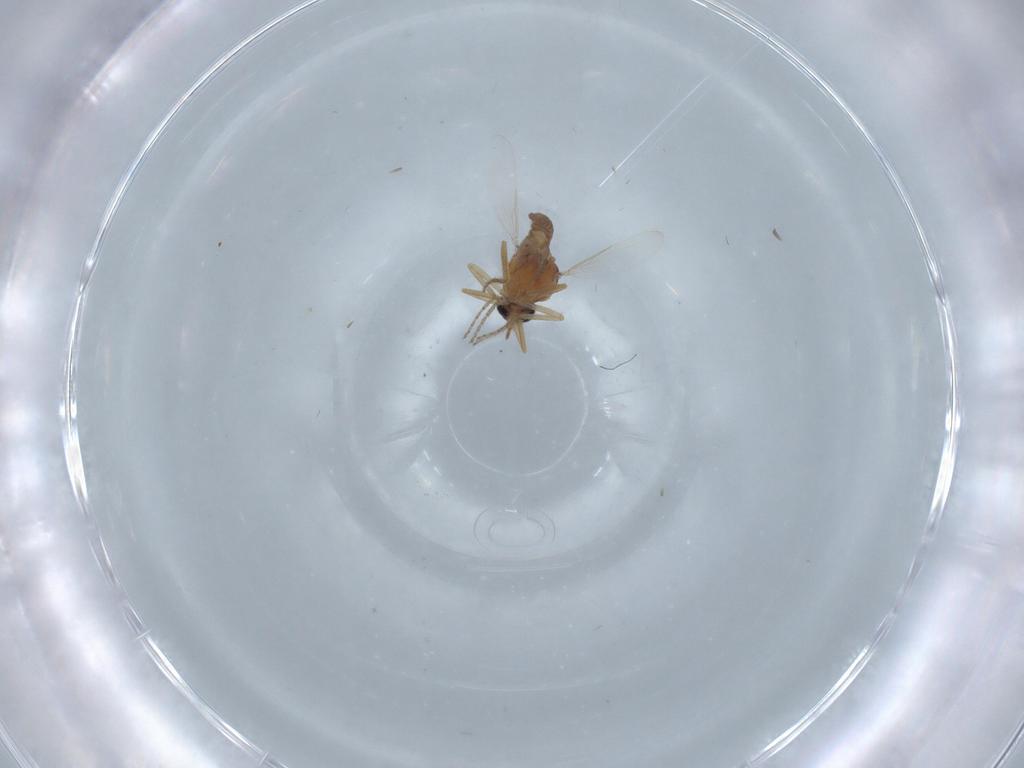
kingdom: Animalia
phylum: Arthropoda
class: Insecta
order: Diptera
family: Ceratopogonidae
